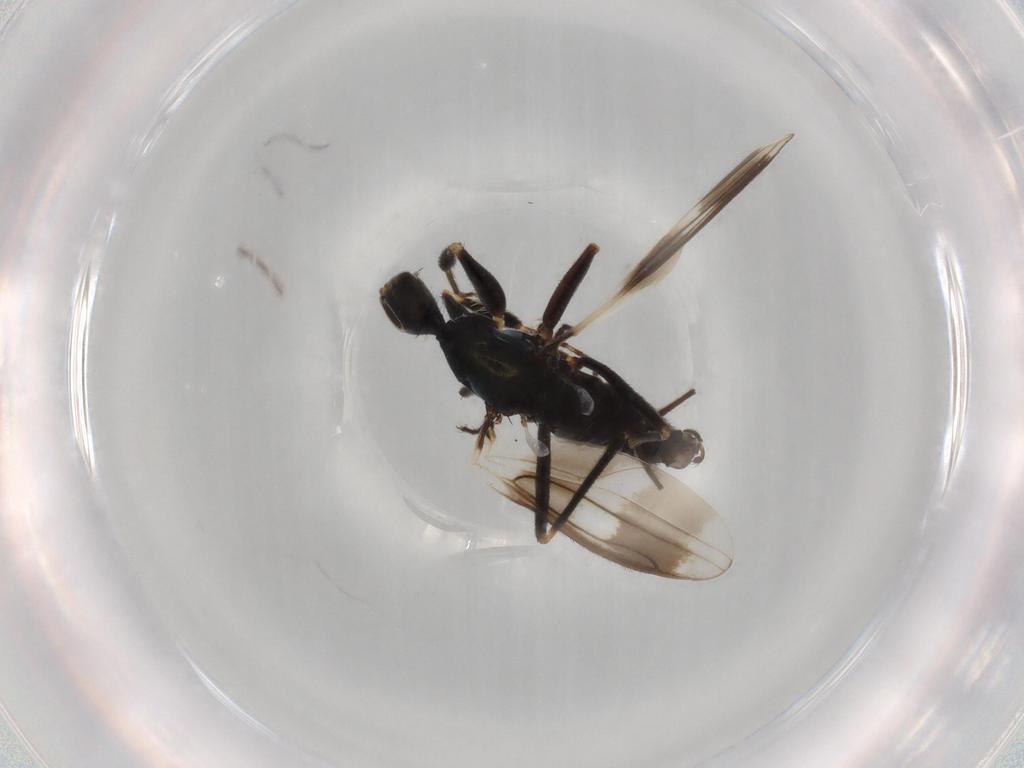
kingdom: Animalia
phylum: Arthropoda
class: Insecta
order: Diptera
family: Hybotidae
